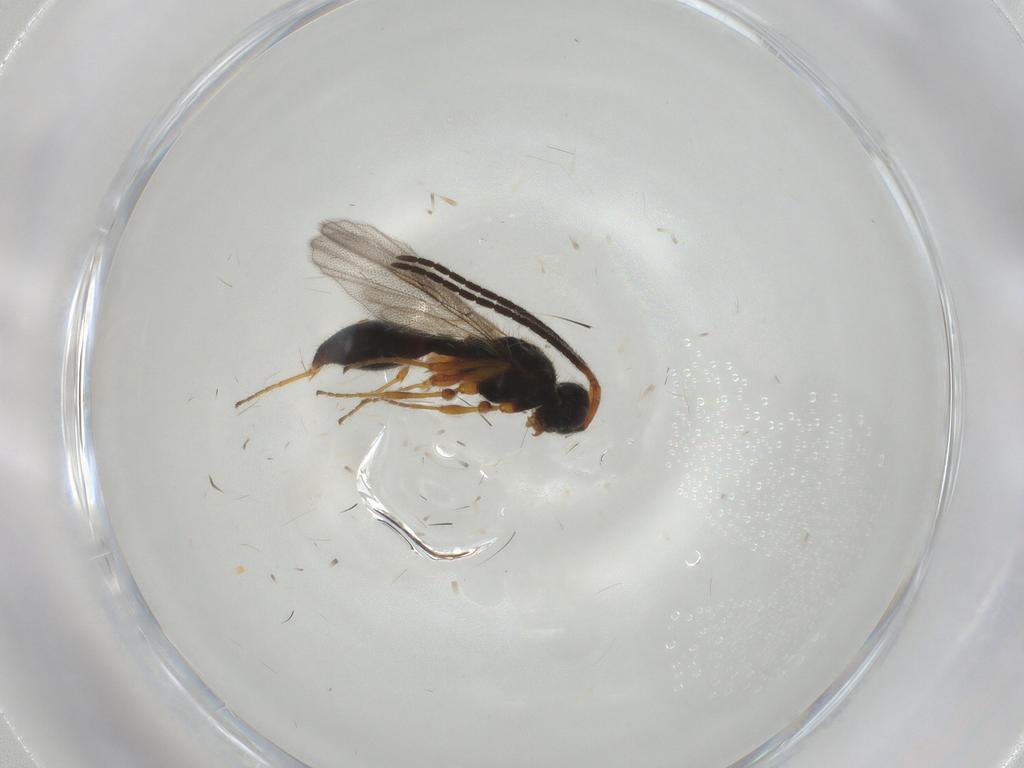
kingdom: Animalia
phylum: Arthropoda
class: Insecta
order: Hymenoptera
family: Formicidae
